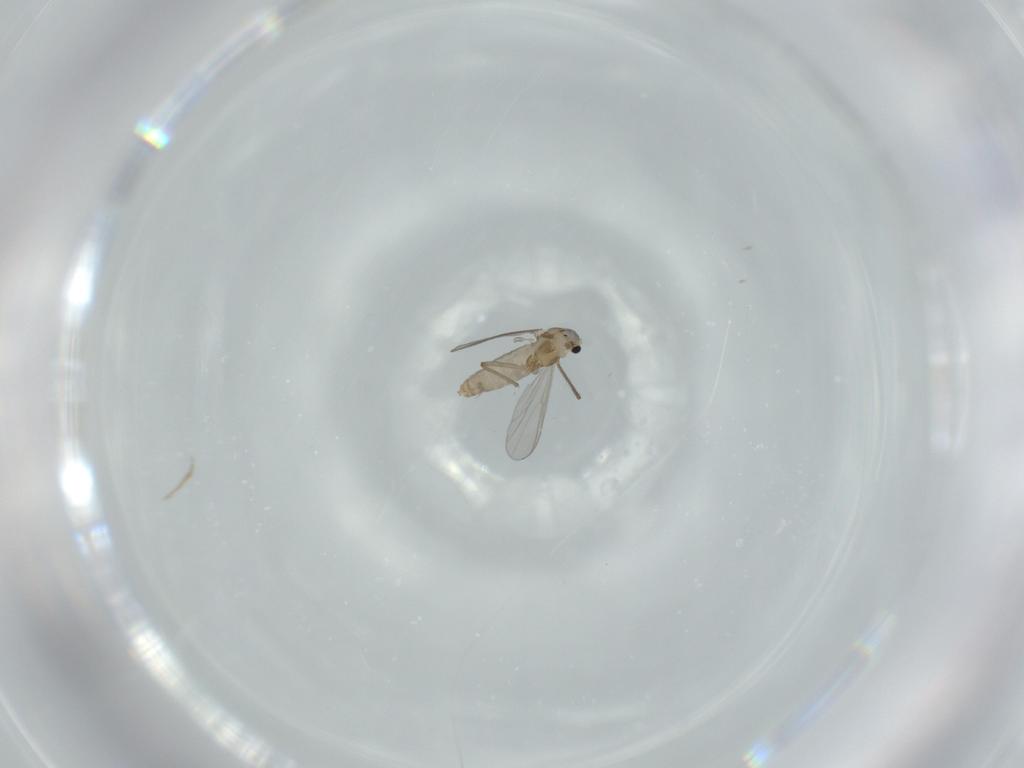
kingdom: Animalia
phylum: Arthropoda
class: Insecta
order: Diptera
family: Chironomidae
